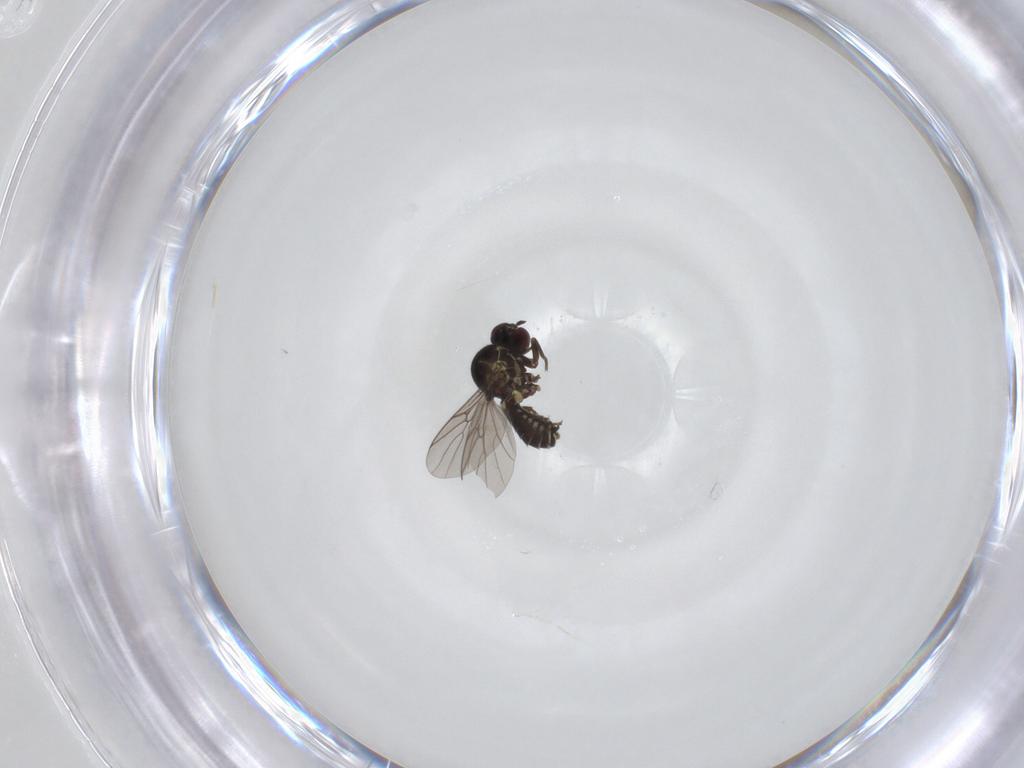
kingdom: Animalia
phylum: Arthropoda
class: Insecta
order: Diptera
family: Mythicomyiidae
